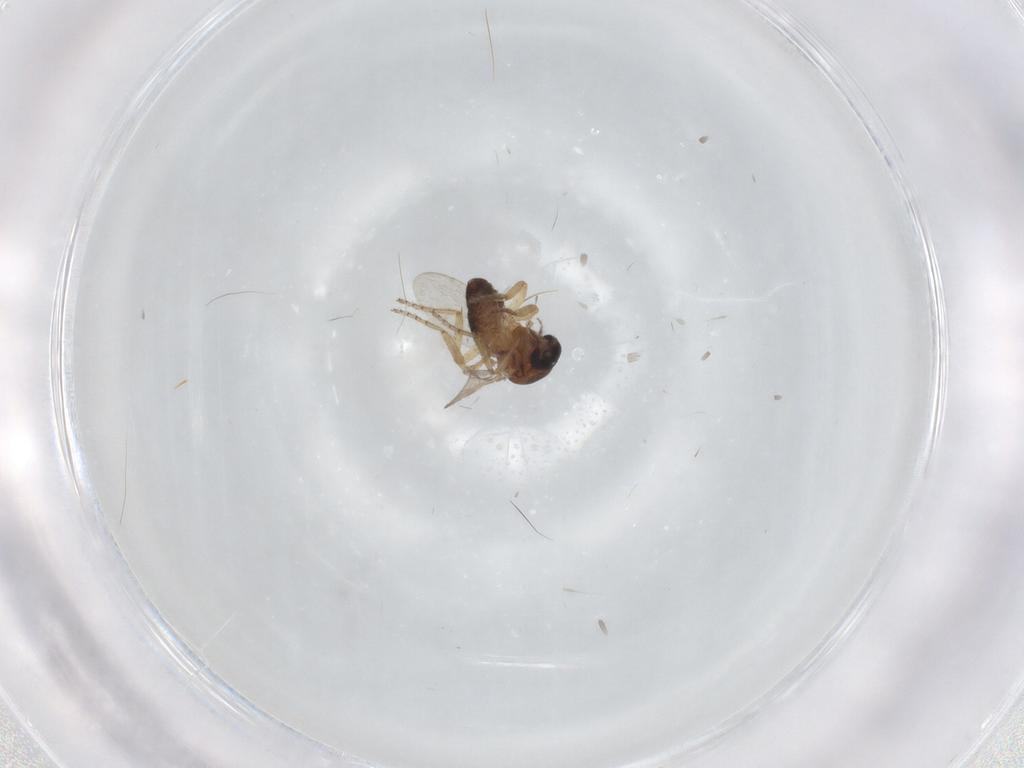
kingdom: Animalia
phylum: Arthropoda
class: Insecta
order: Diptera
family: Ceratopogonidae
